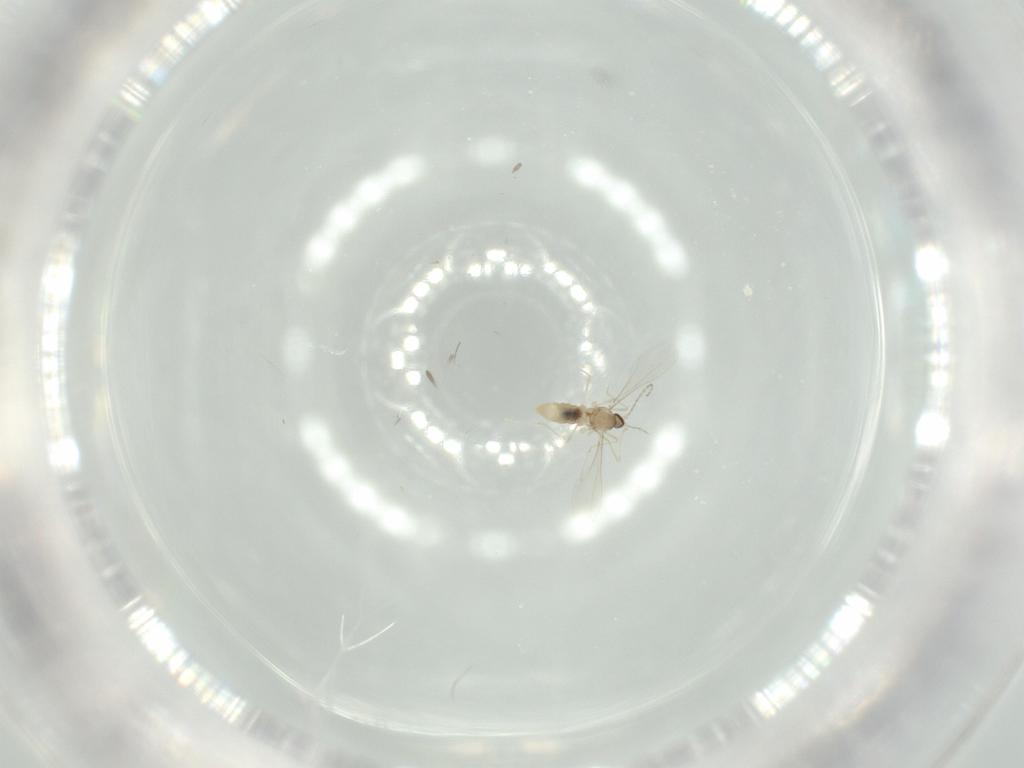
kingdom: Animalia
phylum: Arthropoda
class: Insecta
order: Diptera
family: Cecidomyiidae
